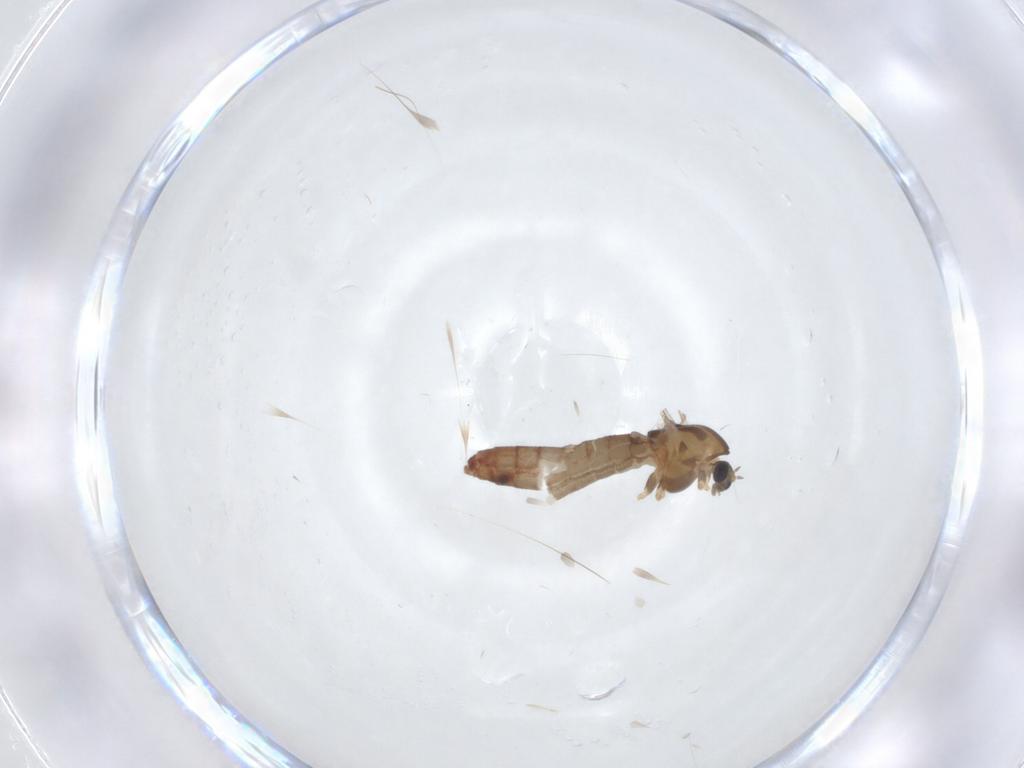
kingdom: Animalia
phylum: Arthropoda
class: Insecta
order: Diptera
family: Chironomidae
